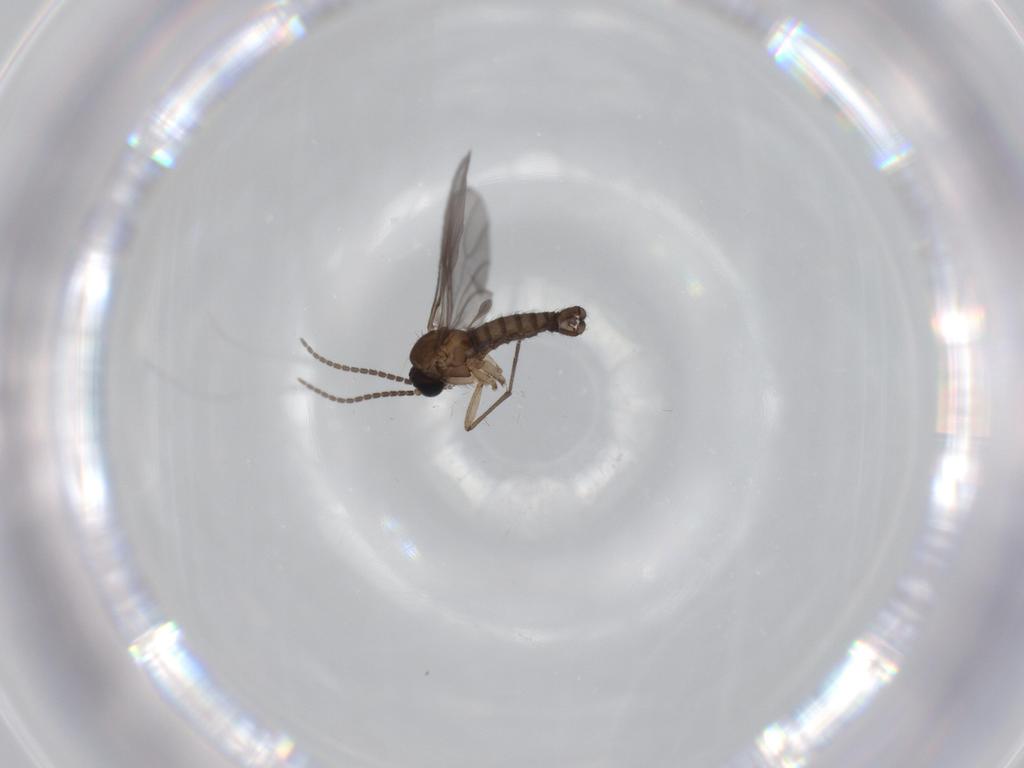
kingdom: Animalia
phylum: Arthropoda
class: Insecta
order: Diptera
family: Sciaridae
